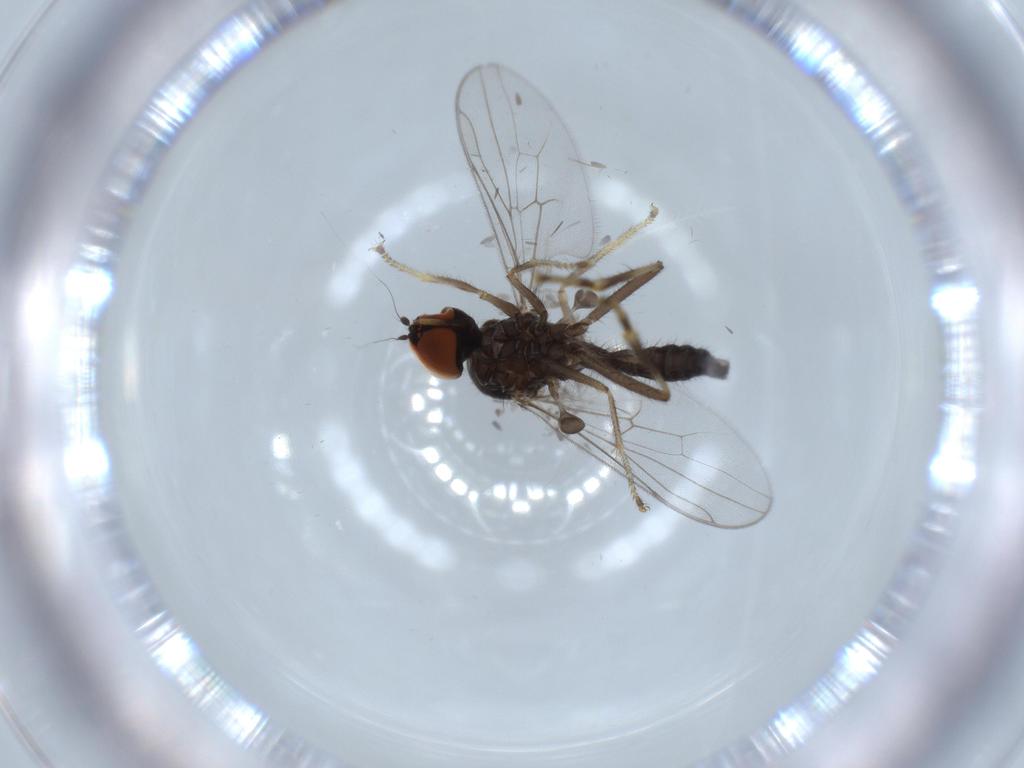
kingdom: Animalia
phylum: Arthropoda
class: Insecta
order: Diptera
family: Hybotidae
